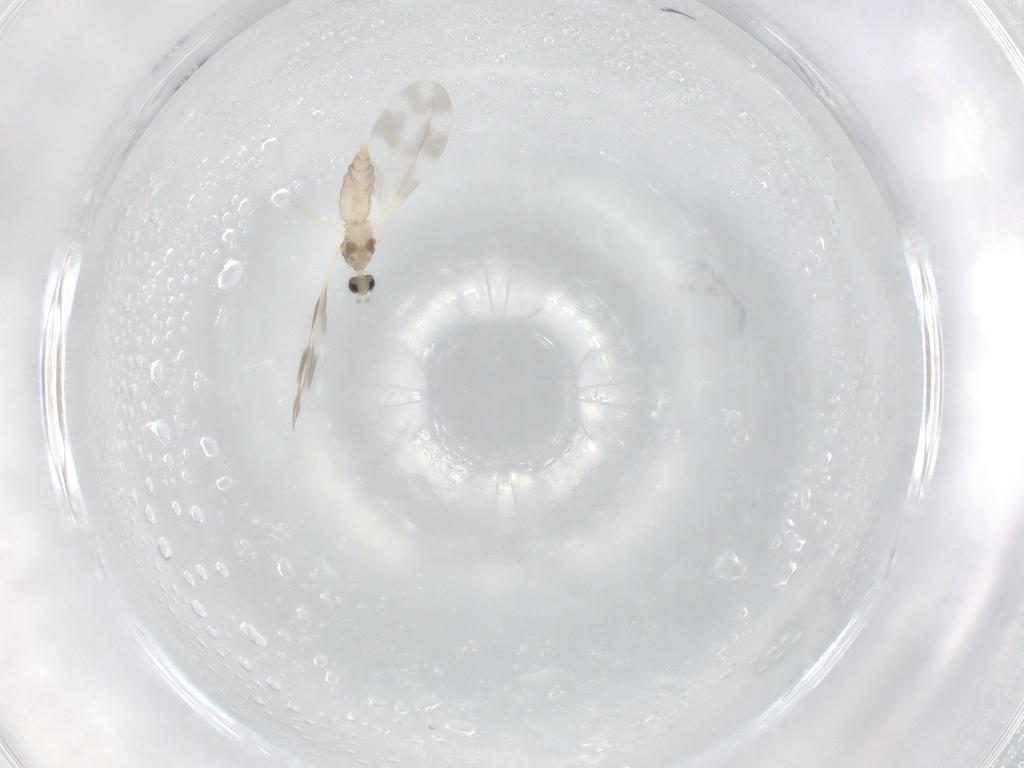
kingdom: Animalia
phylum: Arthropoda
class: Insecta
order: Diptera
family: Cecidomyiidae
